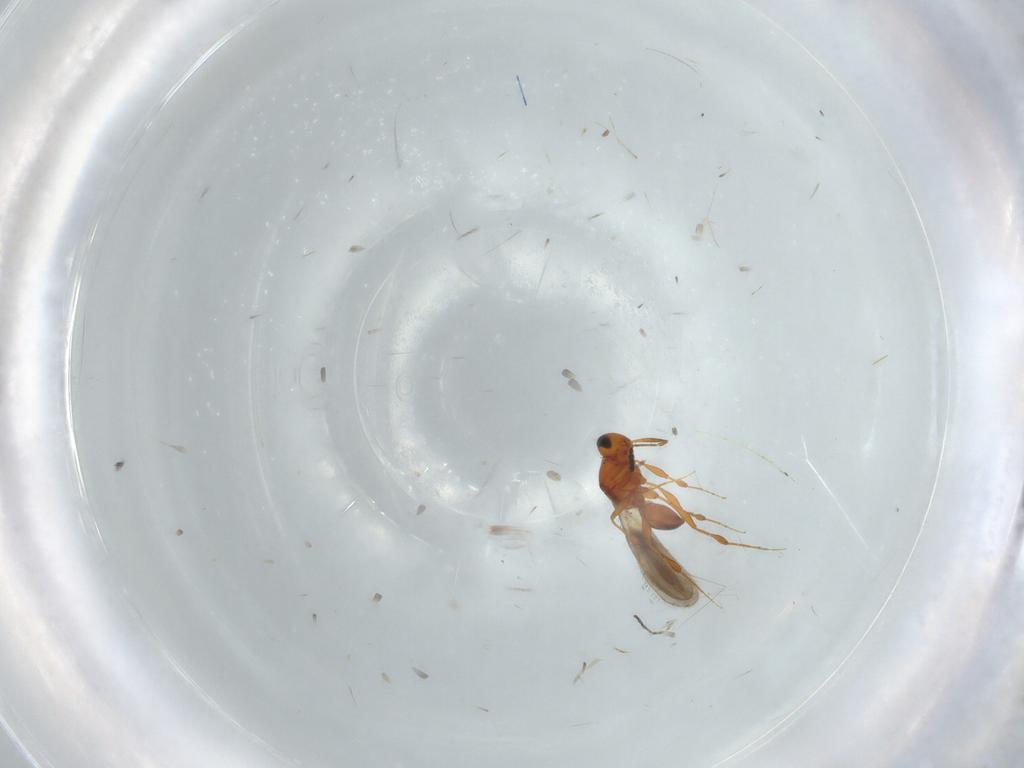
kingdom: Animalia
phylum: Arthropoda
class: Insecta
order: Hymenoptera
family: Platygastridae
